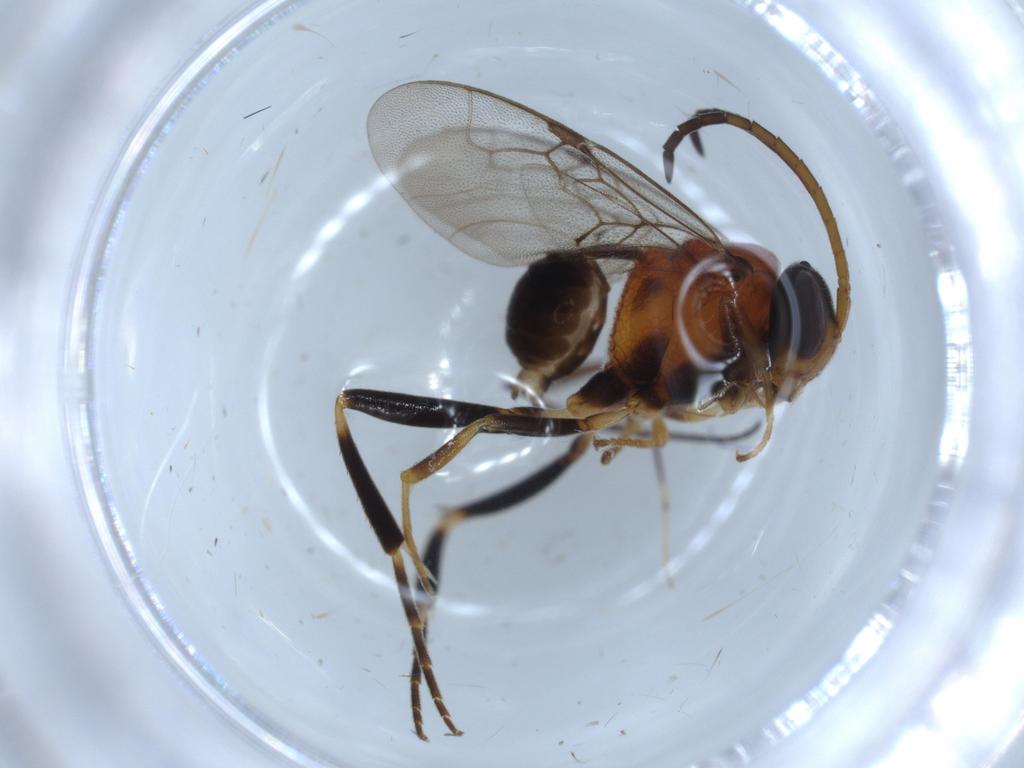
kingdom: Animalia
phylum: Arthropoda
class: Insecta
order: Hymenoptera
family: Evaniidae
